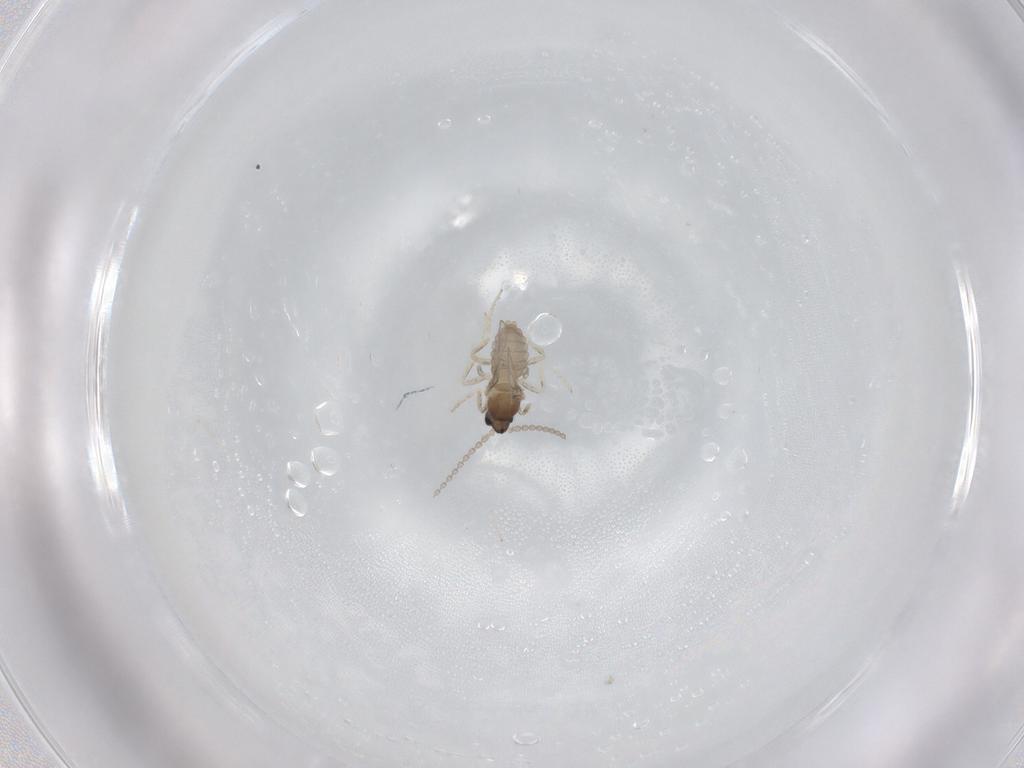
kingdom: Animalia
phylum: Arthropoda
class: Insecta
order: Diptera
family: Cecidomyiidae
